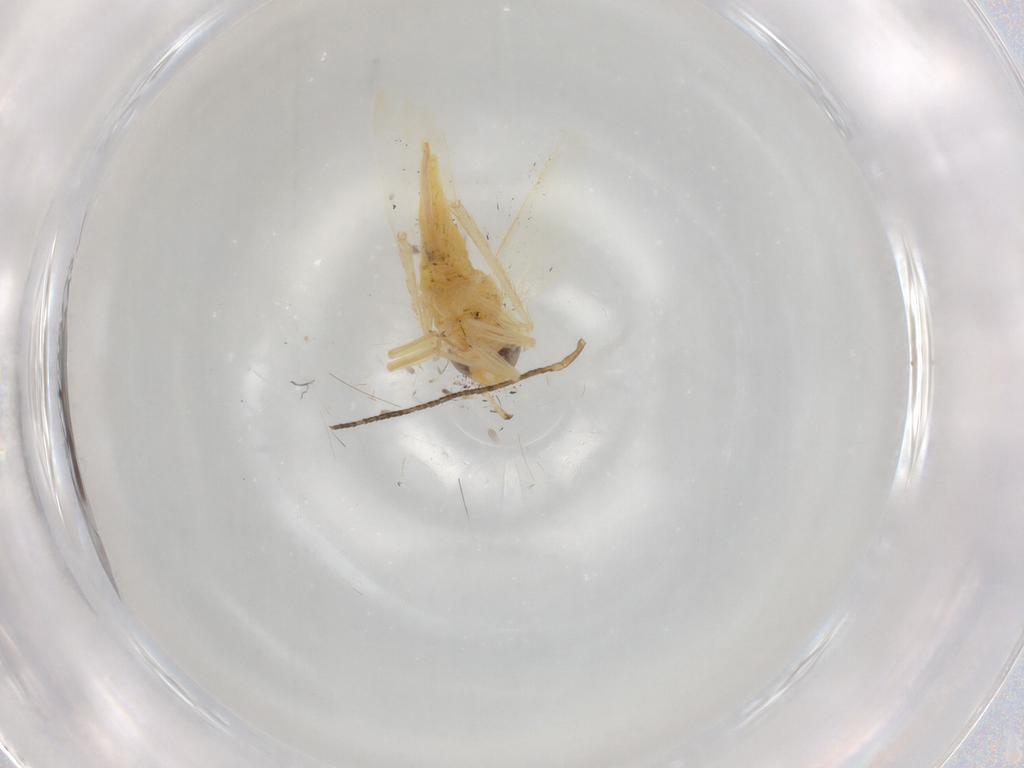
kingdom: Animalia
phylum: Arthropoda
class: Insecta
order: Hemiptera
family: Cicadellidae
